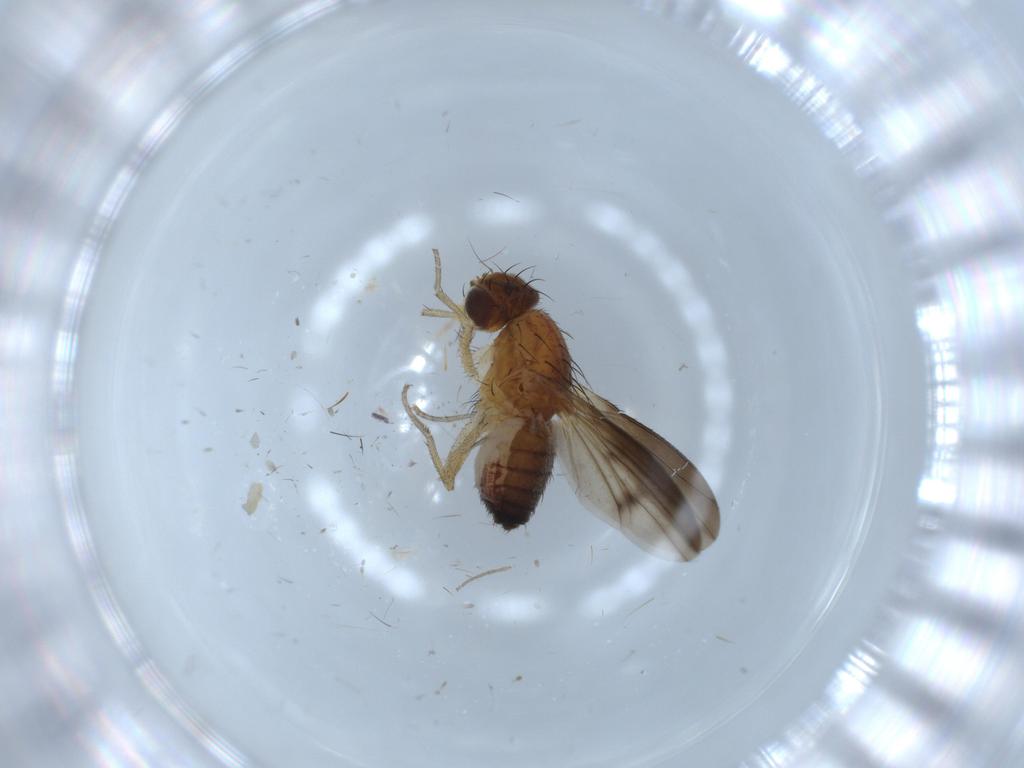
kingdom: Animalia
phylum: Arthropoda
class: Insecta
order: Diptera
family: Heleomyzidae
